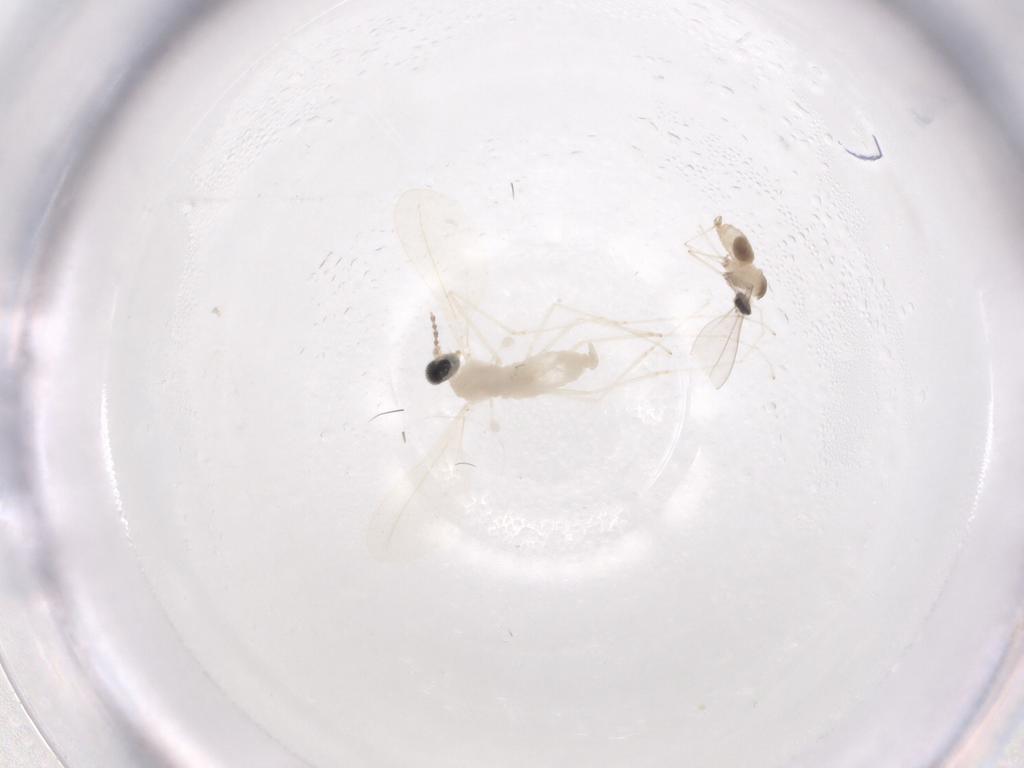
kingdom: Animalia
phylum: Arthropoda
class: Insecta
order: Diptera
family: Cecidomyiidae
